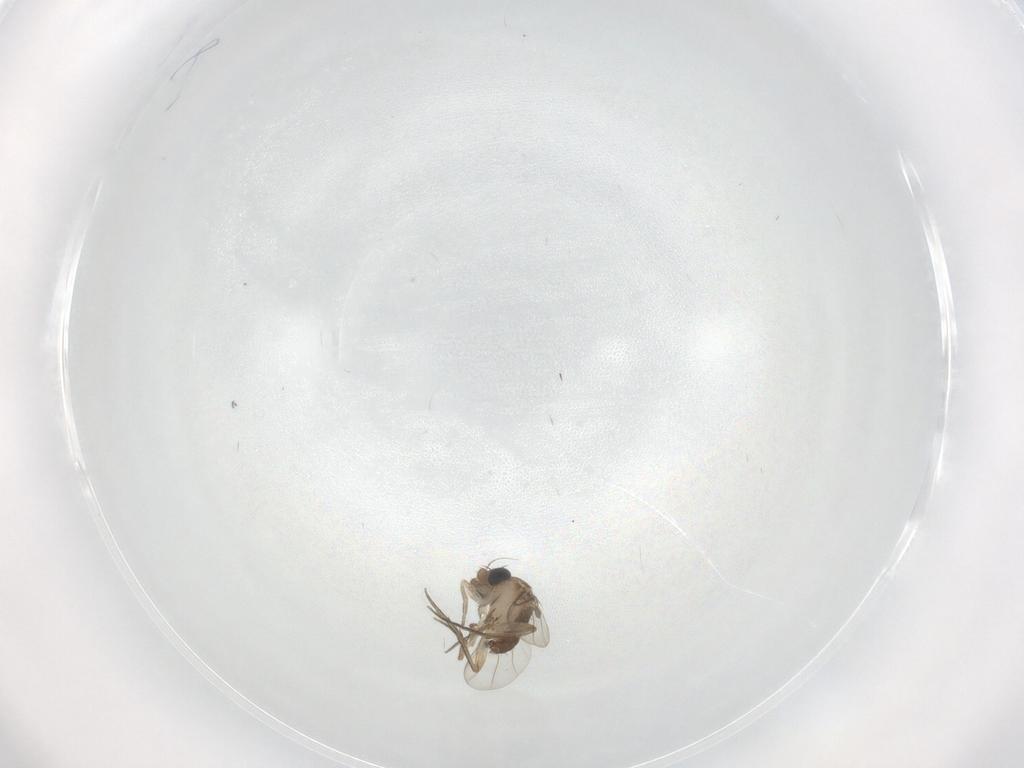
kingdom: Animalia
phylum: Arthropoda
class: Insecta
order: Diptera
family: Phoridae
